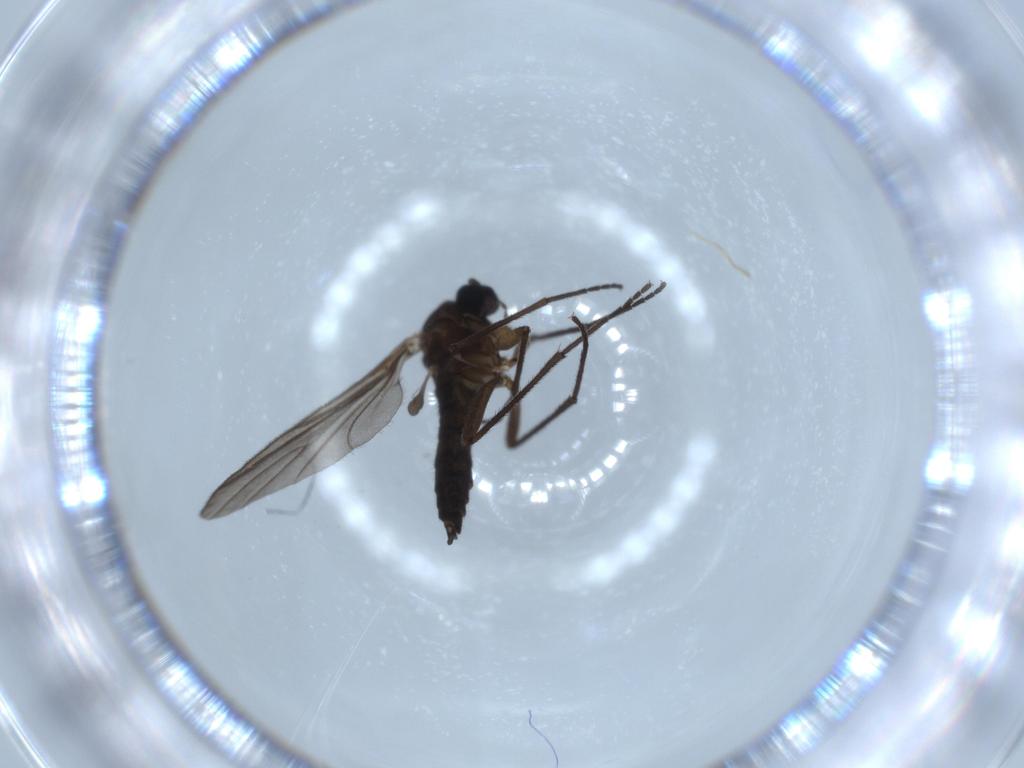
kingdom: Animalia
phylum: Arthropoda
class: Insecta
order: Diptera
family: Sciaridae
